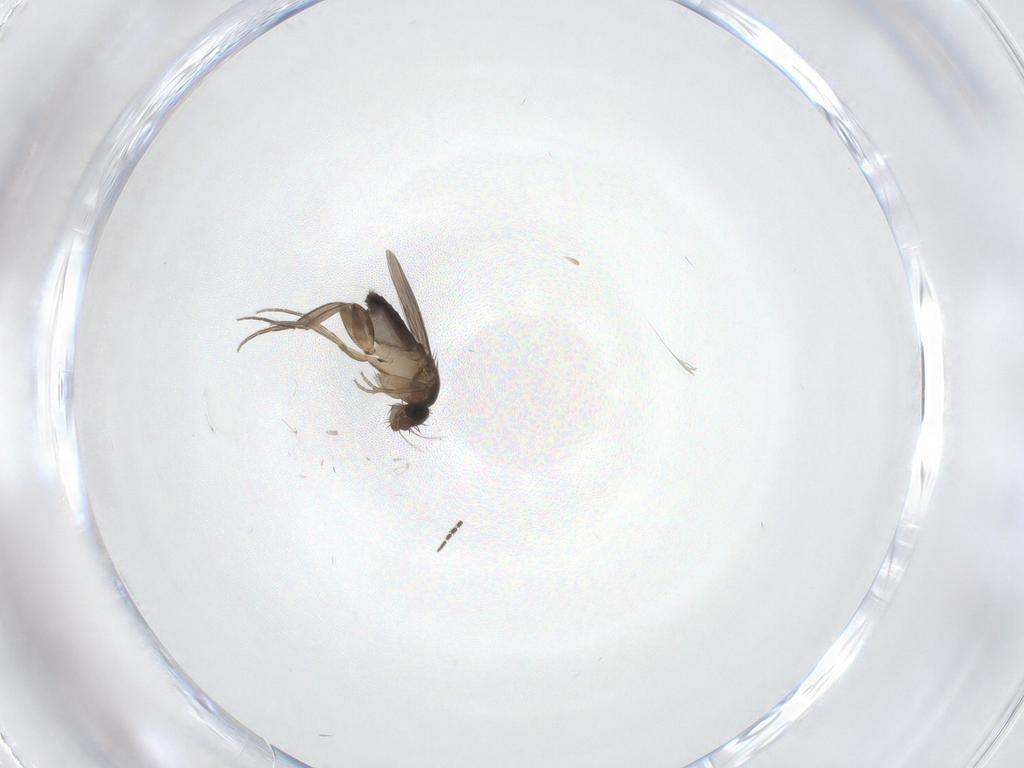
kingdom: Animalia
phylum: Arthropoda
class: Insecta
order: Diptera
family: Phoridae
